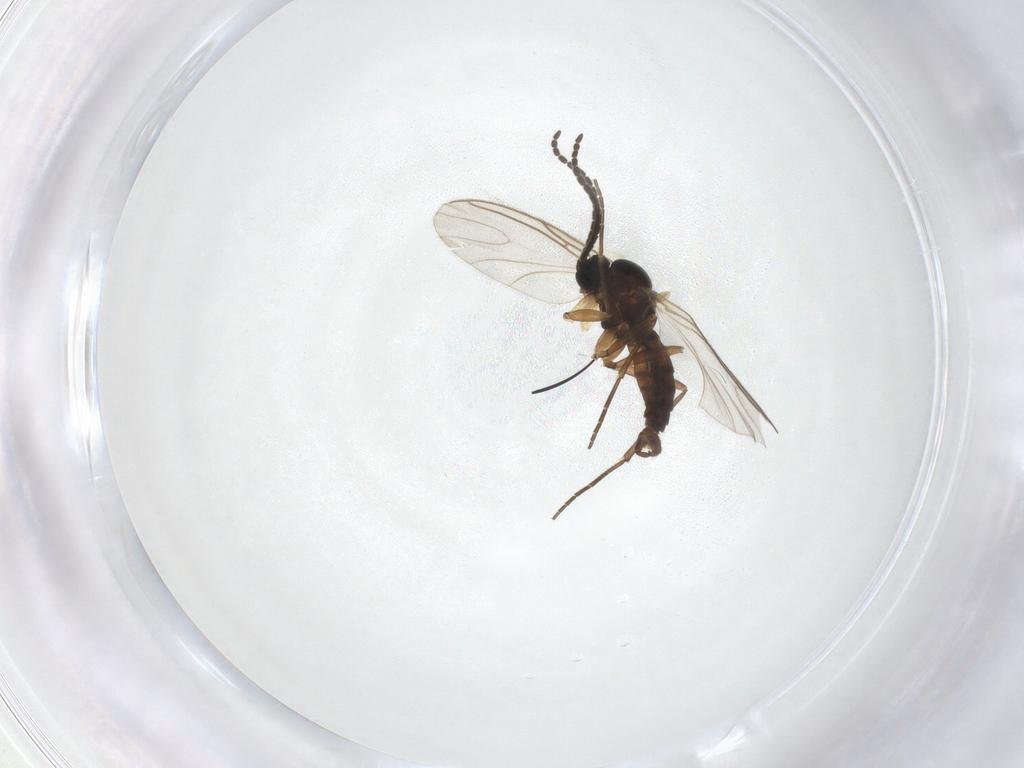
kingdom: Animalia
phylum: Arthropoda
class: Insecta
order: Diptera
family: Sciaridae
